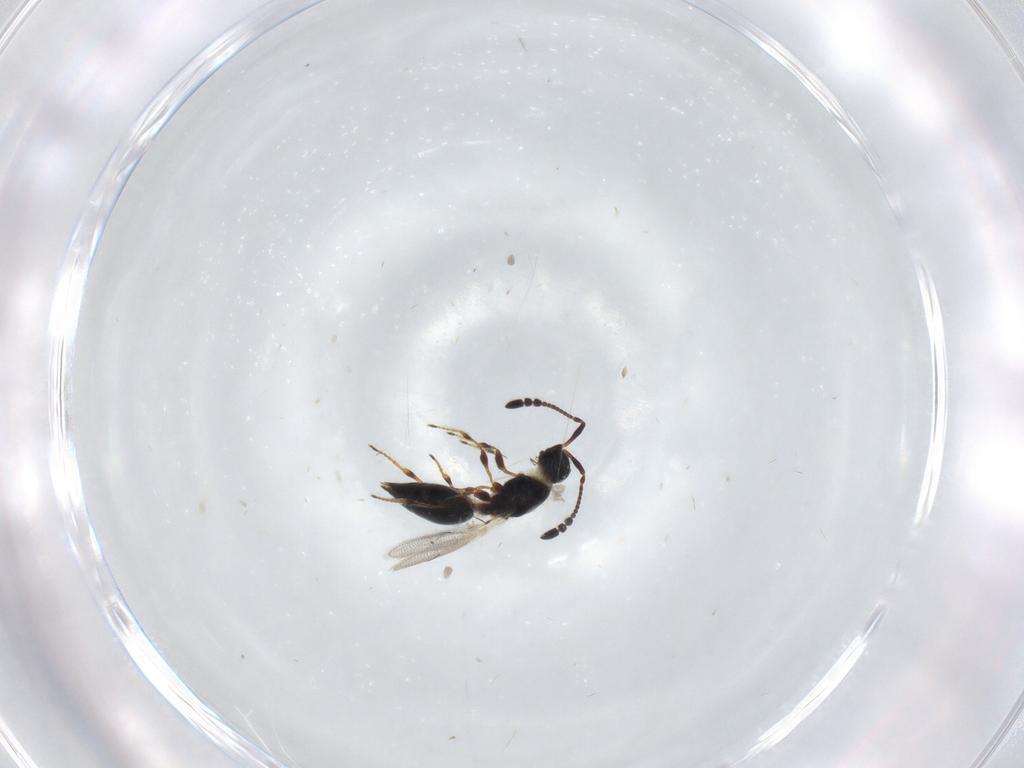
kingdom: Animalia
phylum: Arthropoda
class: Insecta
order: Hymenoptera
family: Diapriidae
